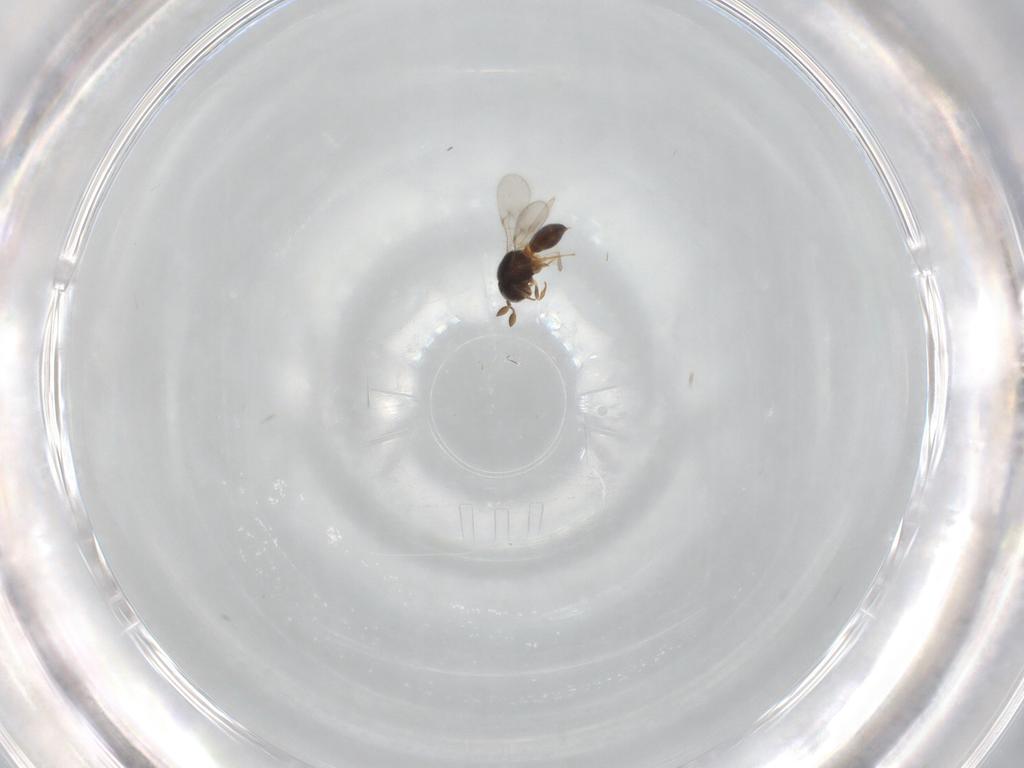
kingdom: Animalia
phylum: Arthropoda
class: Insecta
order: Hymenoptera
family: Scelionidae
